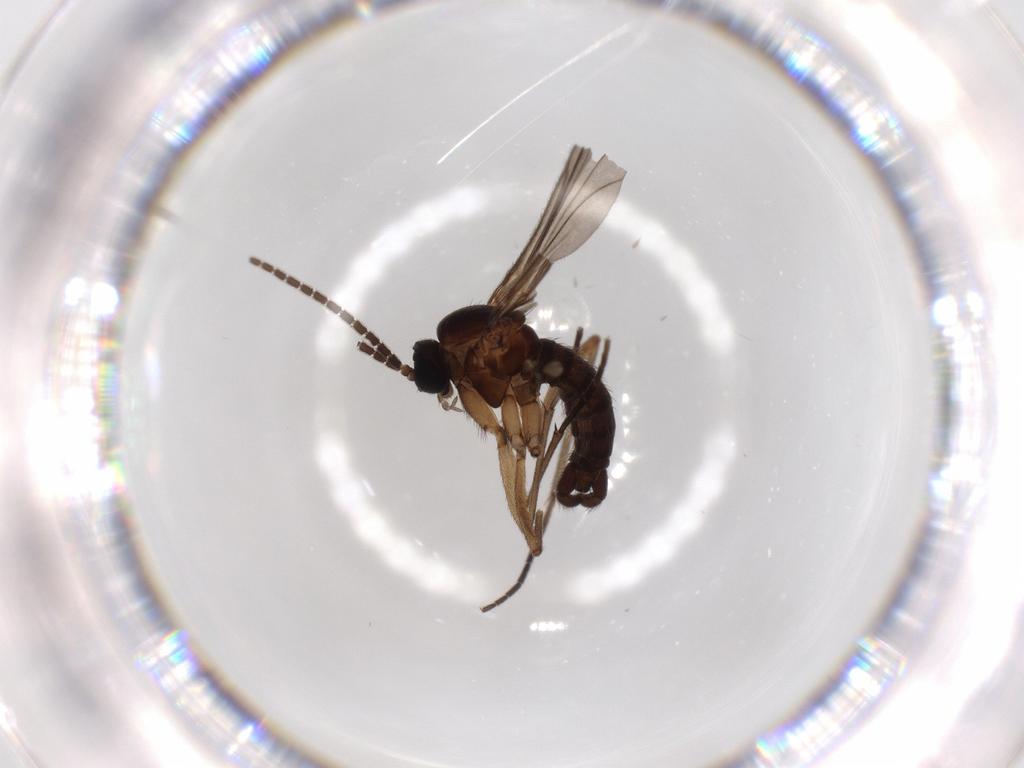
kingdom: Animalia
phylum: Arthropoda
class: Insecta
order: Diptera
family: Sciaridae
